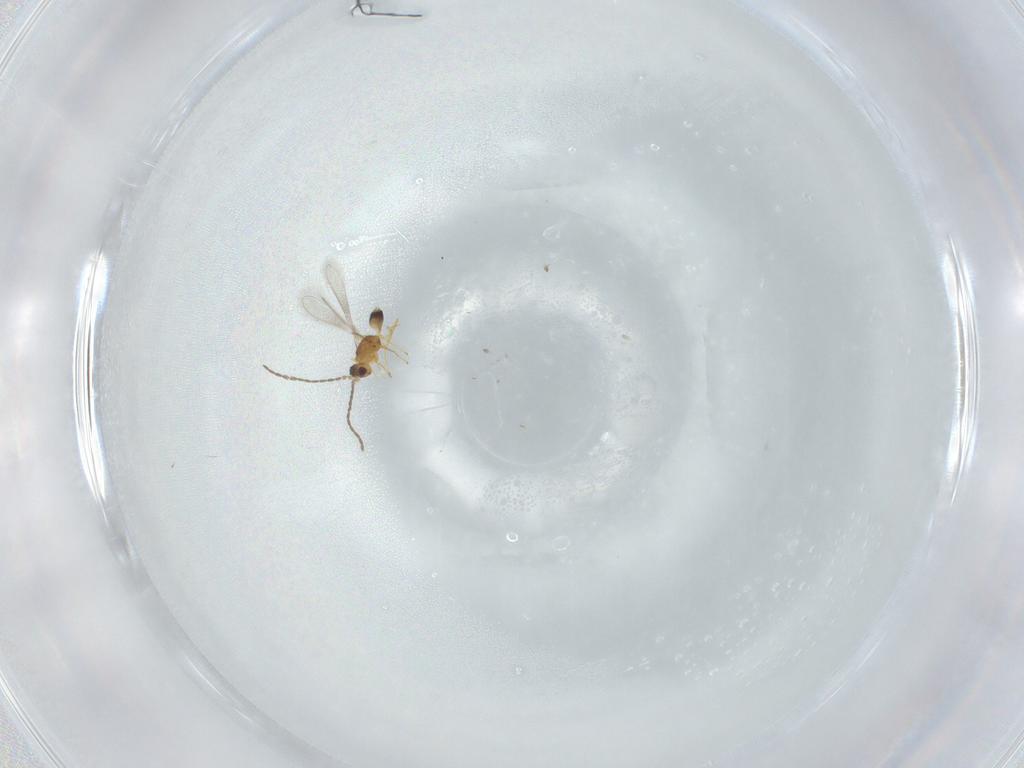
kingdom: Animalia
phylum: Arthropoda
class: Insecta
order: Hymenoptera
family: Mymaridae
